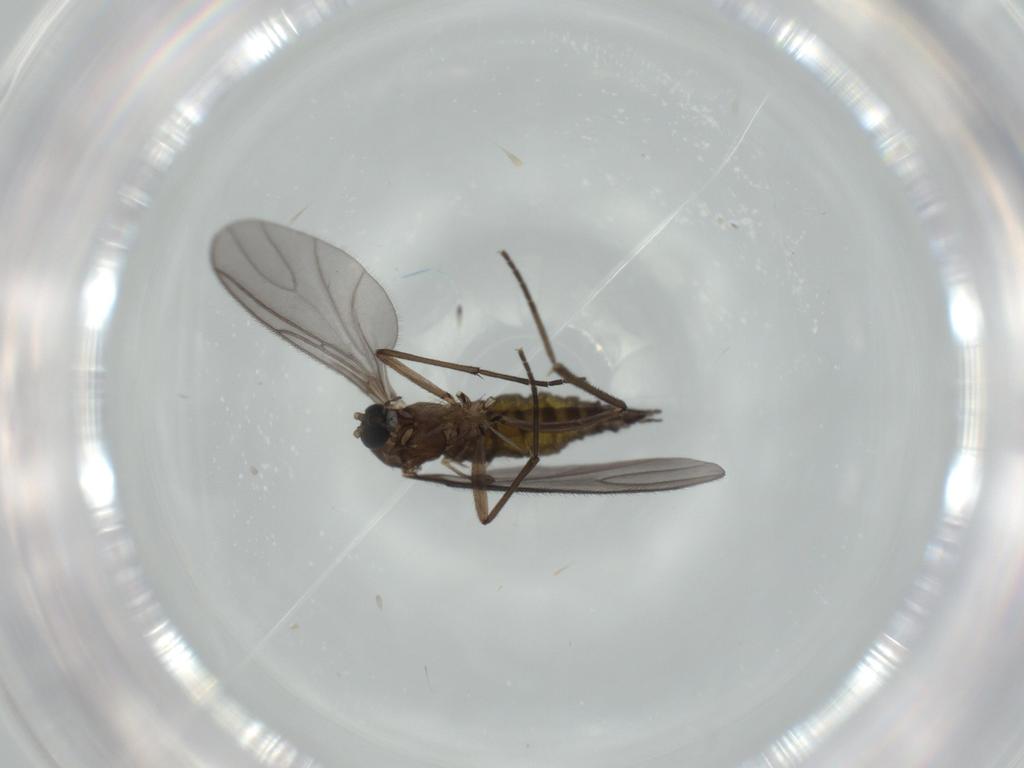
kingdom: Animalia
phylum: Arthropoda
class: Insecta
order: Diptera
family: Sciaridae
